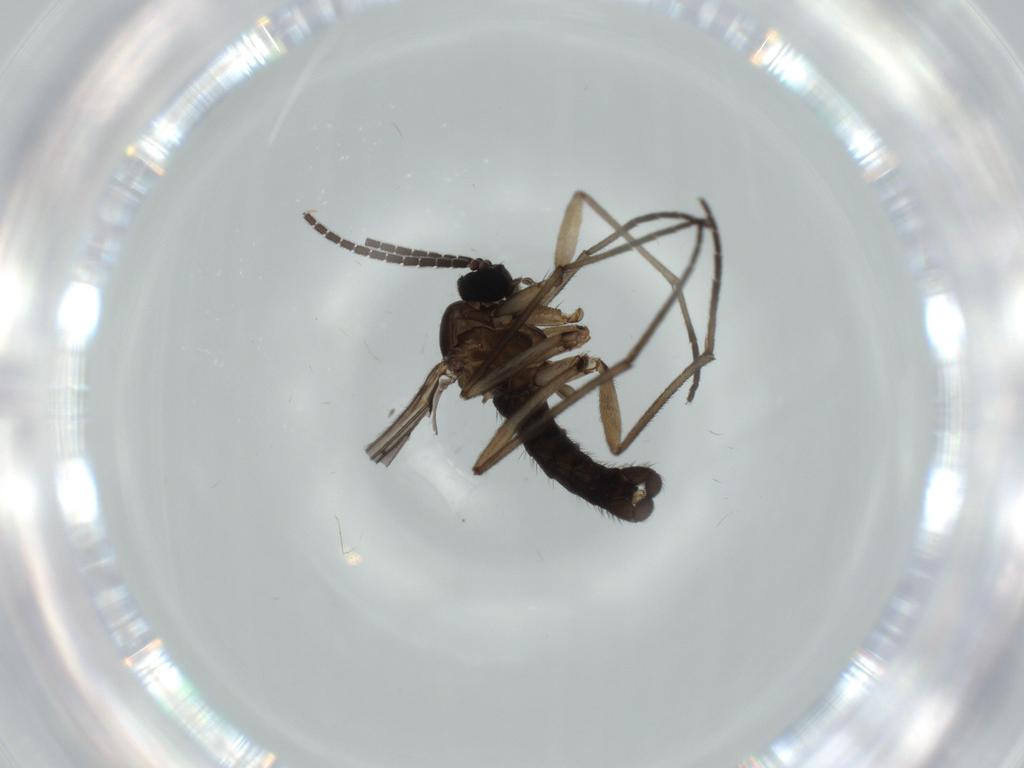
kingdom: Animalia
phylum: Arthropoda
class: Insecta
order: Diptera
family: Sciaridae
